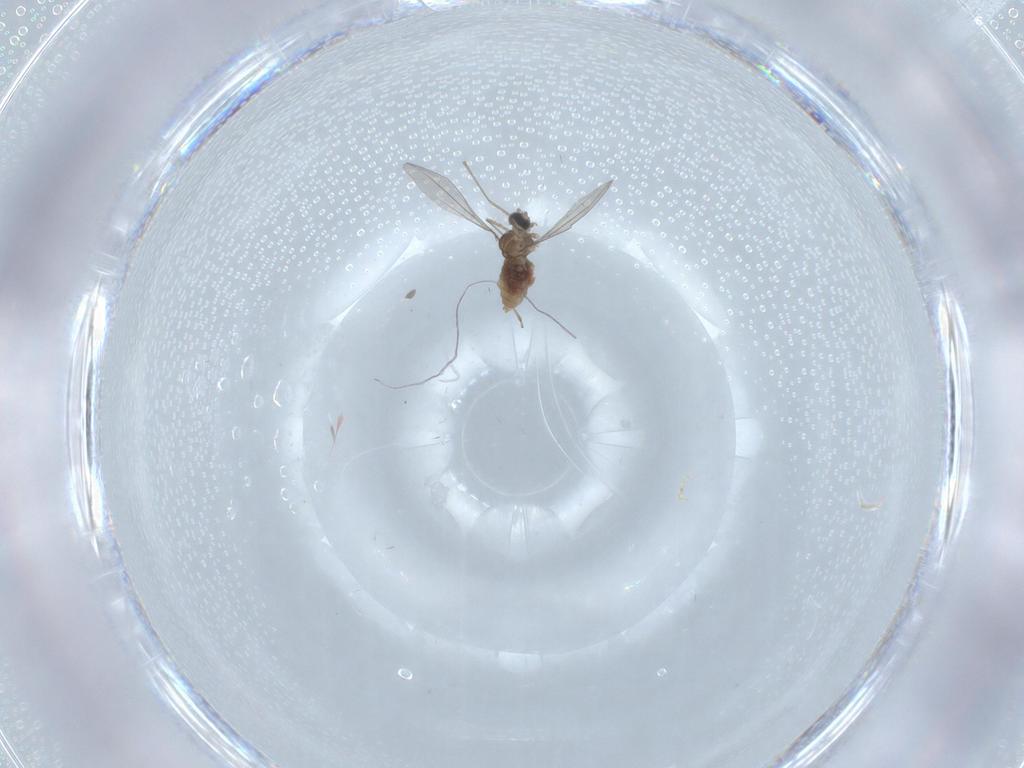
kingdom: Animalia
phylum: Arthropoda
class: Insecta
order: Diptera
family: Cecidomyiidae
